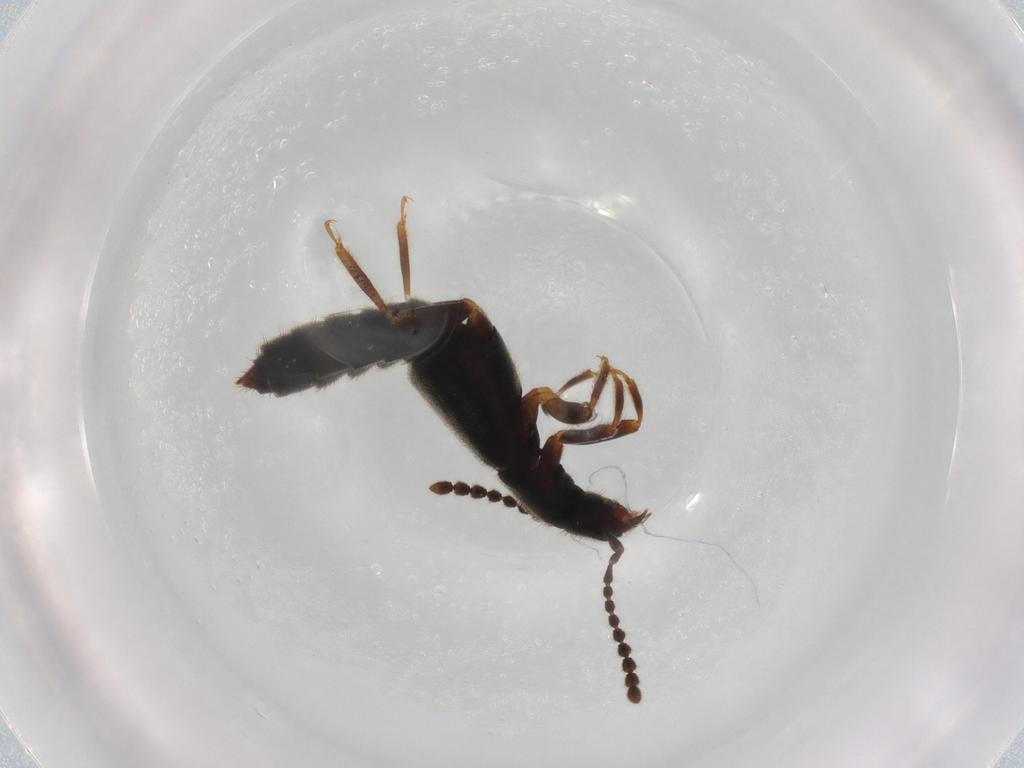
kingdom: Animalia
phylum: Arthropoda
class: Insecta
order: Coleoptera
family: Staphylinidae
